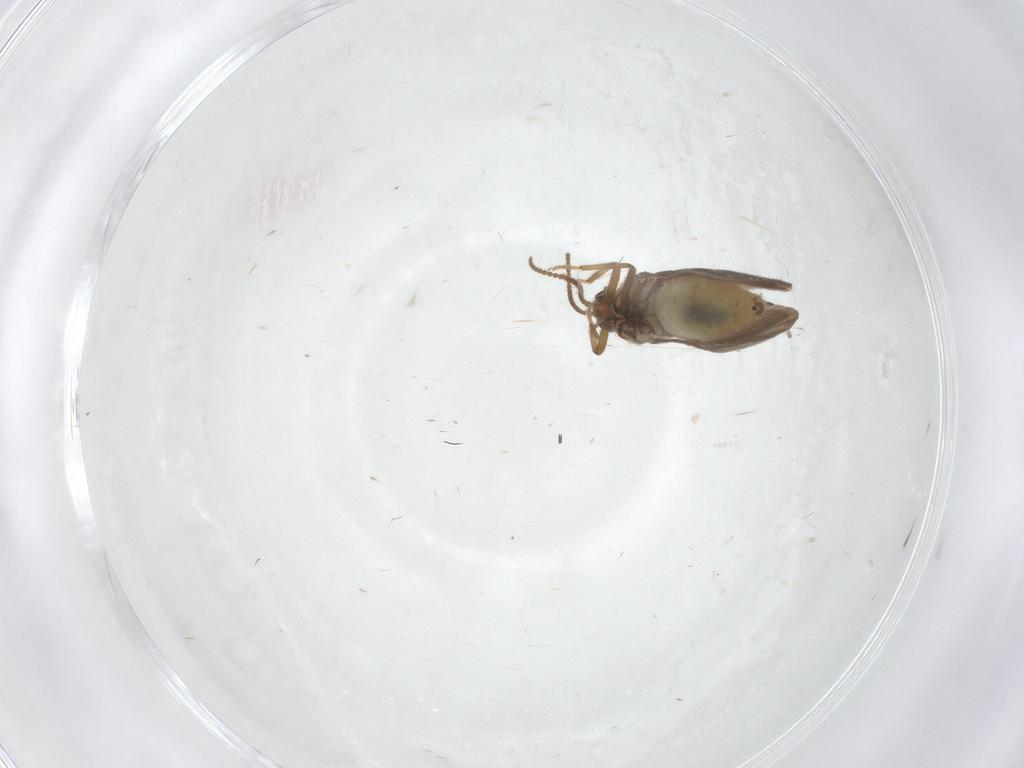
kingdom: Animalia
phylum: Arthropoda
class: Insecta
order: Neuroptera
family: Coniopterygidae
